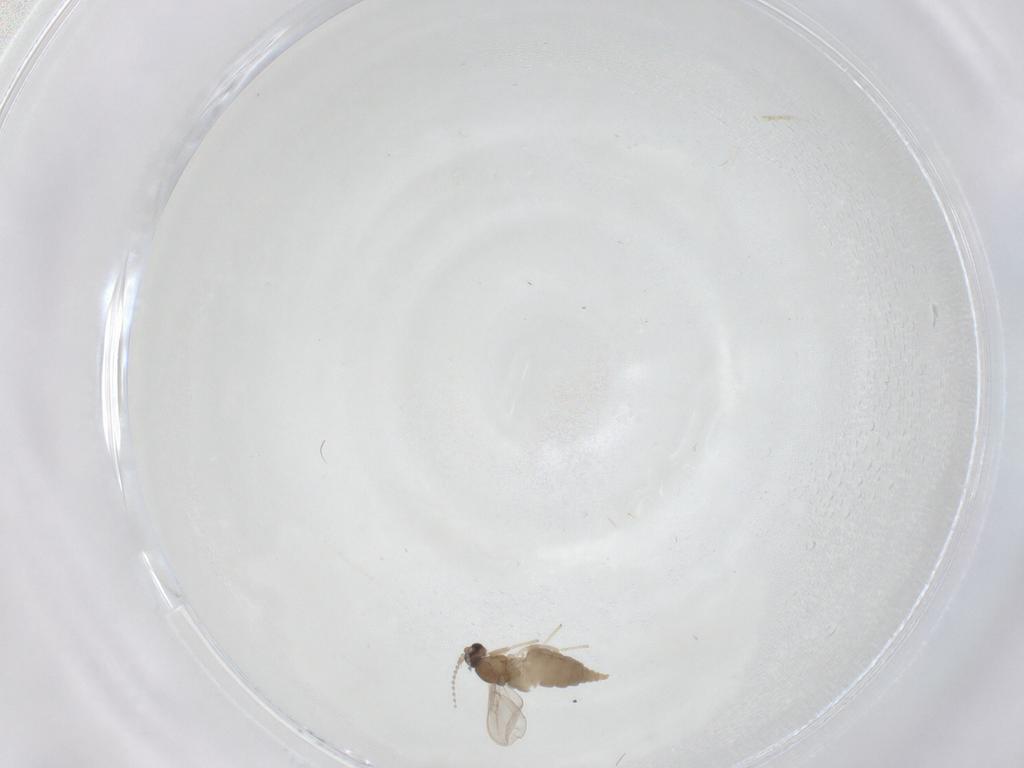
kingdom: Animalia
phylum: Arthropoda
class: Insecta
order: Diptera
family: Cecidomyiidae
